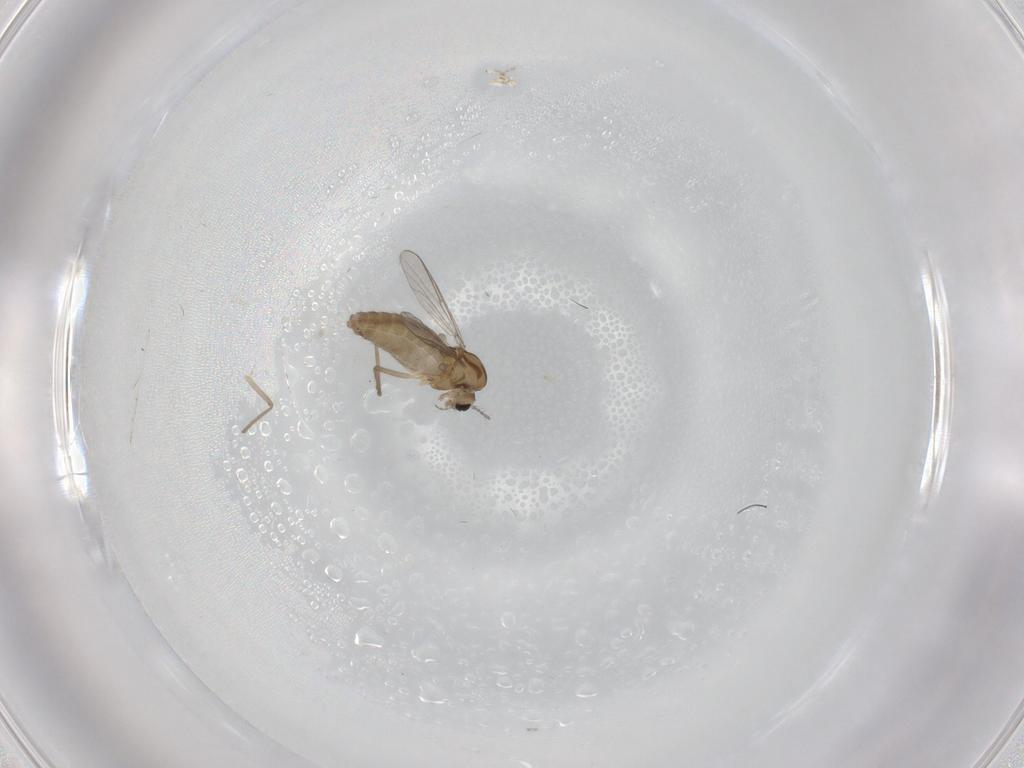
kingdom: Animalia
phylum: Arthropoda
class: Insecta
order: Diptera
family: Chironomidae
